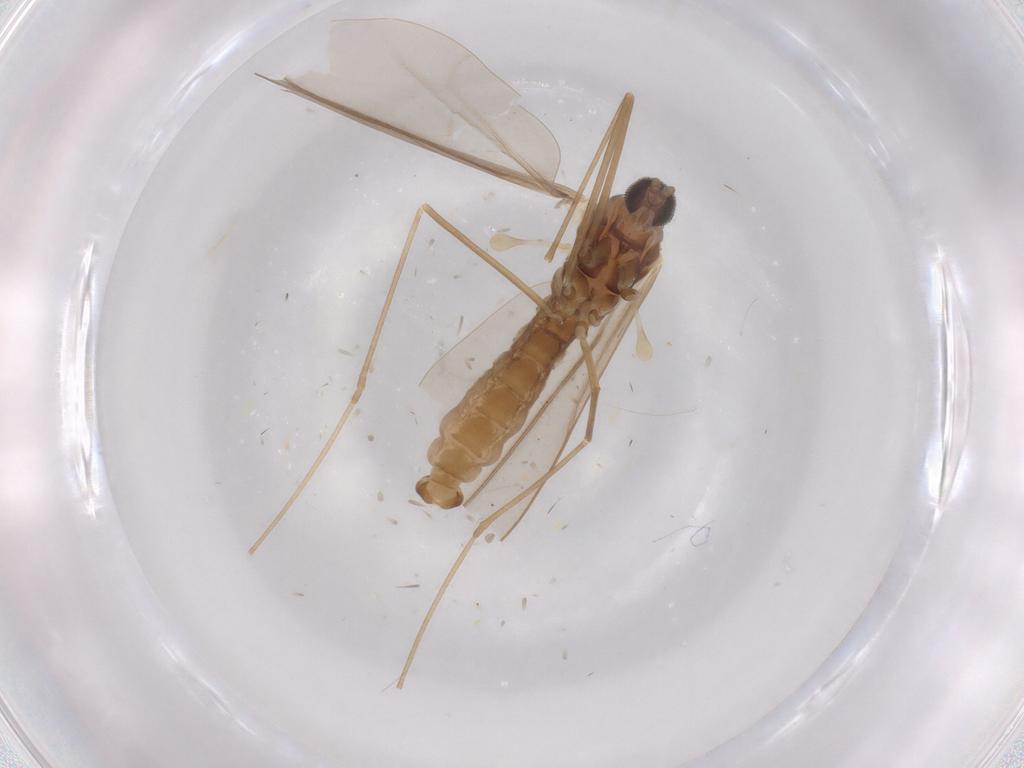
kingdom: Animalia
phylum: Arthropoda
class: Insecta
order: Diptera
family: Cecidomyiidae
